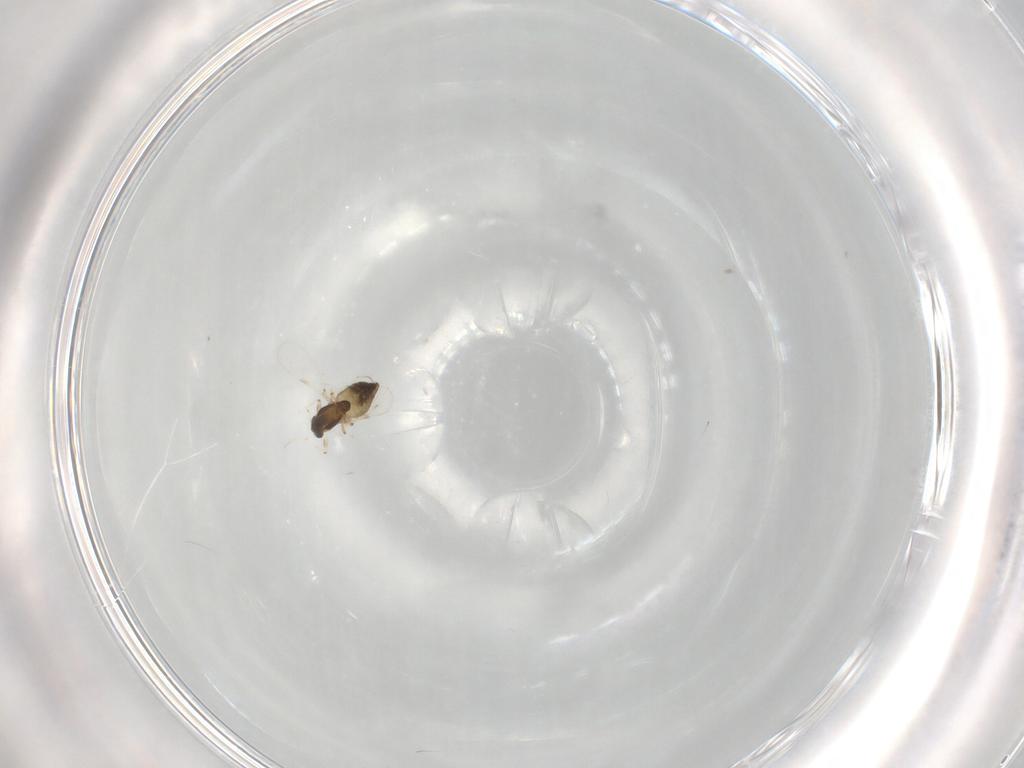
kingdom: Animalia
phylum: Arthropoda
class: Insecta
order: Diptera
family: Chironomidae
